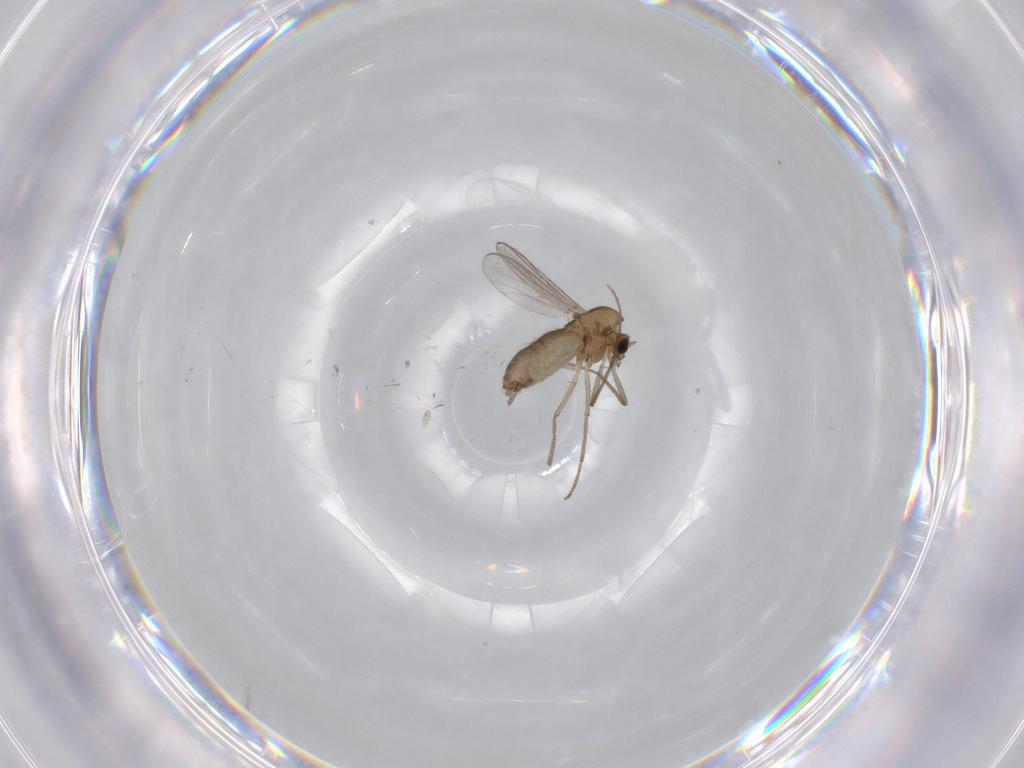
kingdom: Animalia
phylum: Arthropoda
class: Insecta
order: Diptera
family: Chironomidae
